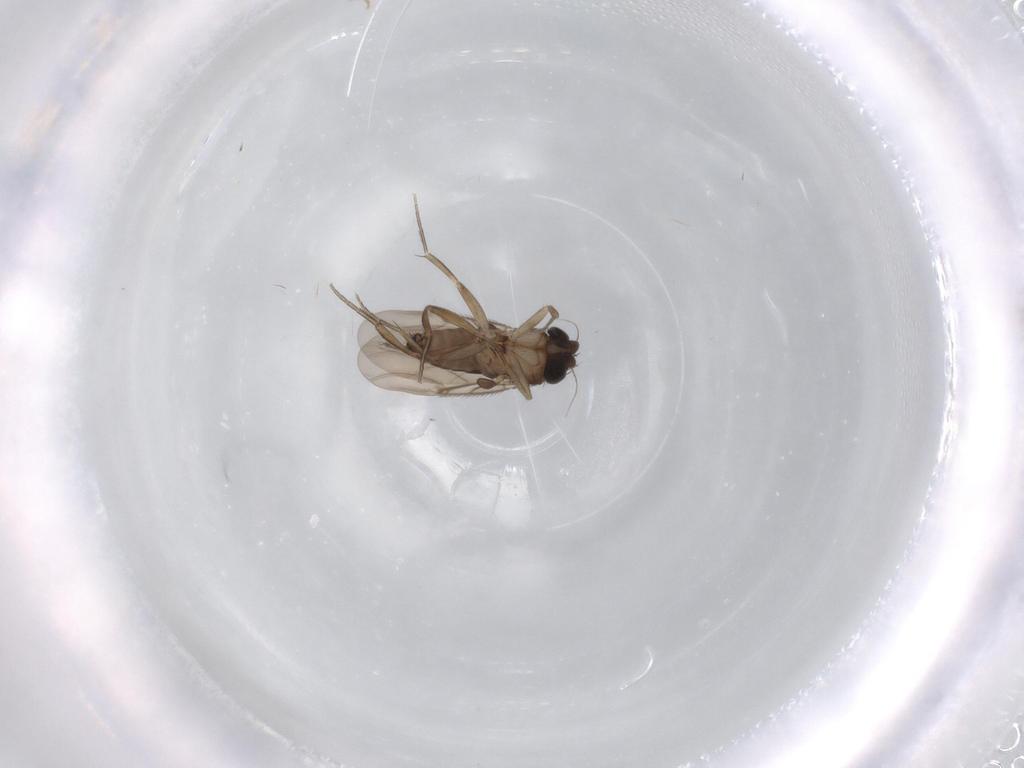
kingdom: Animalia
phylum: Arthropoda
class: Insecta
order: Diptera
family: Phoridae
